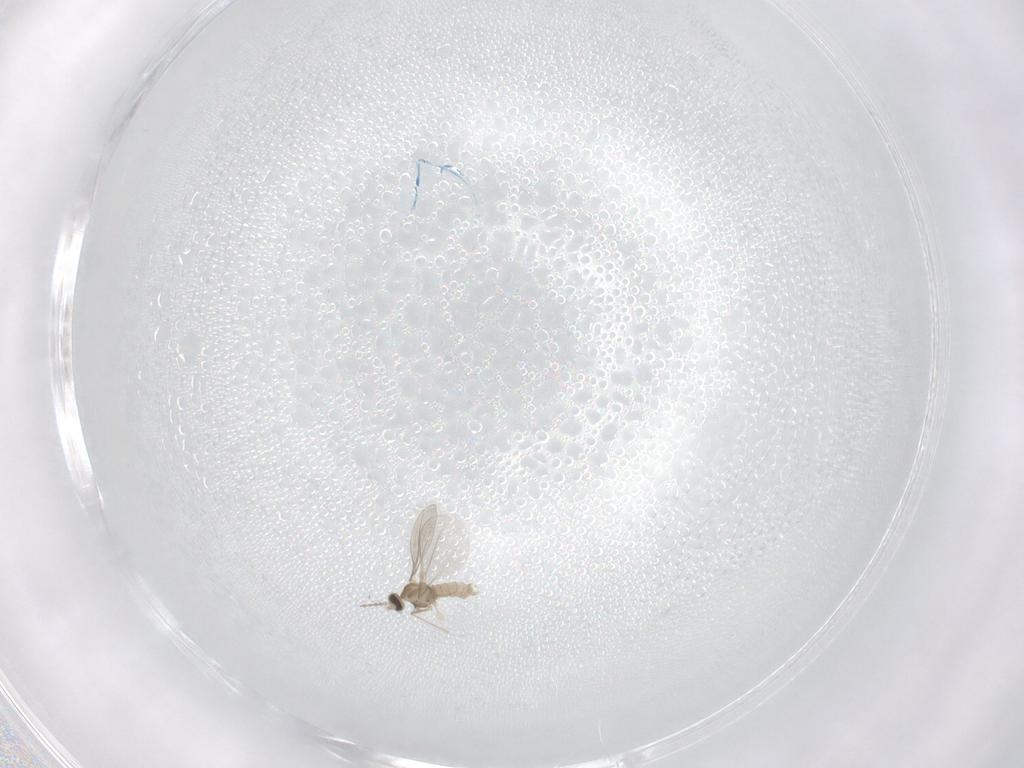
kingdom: Animalia
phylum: Arthropoda
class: Insecta
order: Diptera
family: Cecidomyiidae
